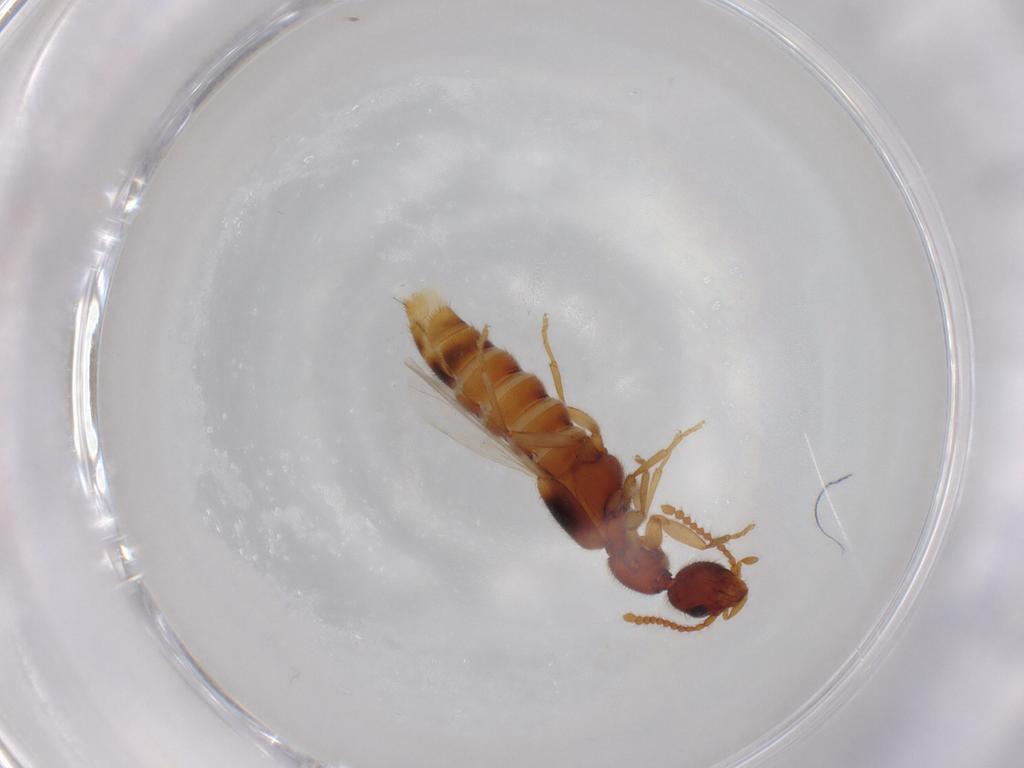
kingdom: Animalia
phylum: Arthropoda
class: Insecta
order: Coleoptera
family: Staphylinidae
